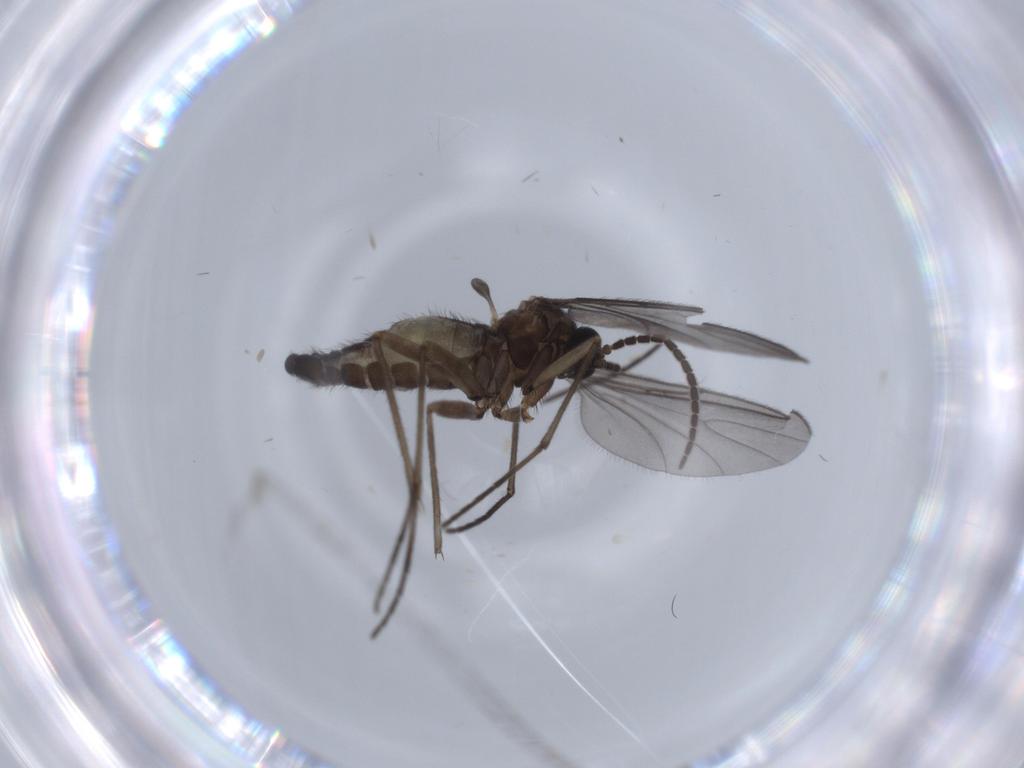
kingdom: Animalia
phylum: Arthropoda
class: Insecta
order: Diptera
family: Sciaridae
